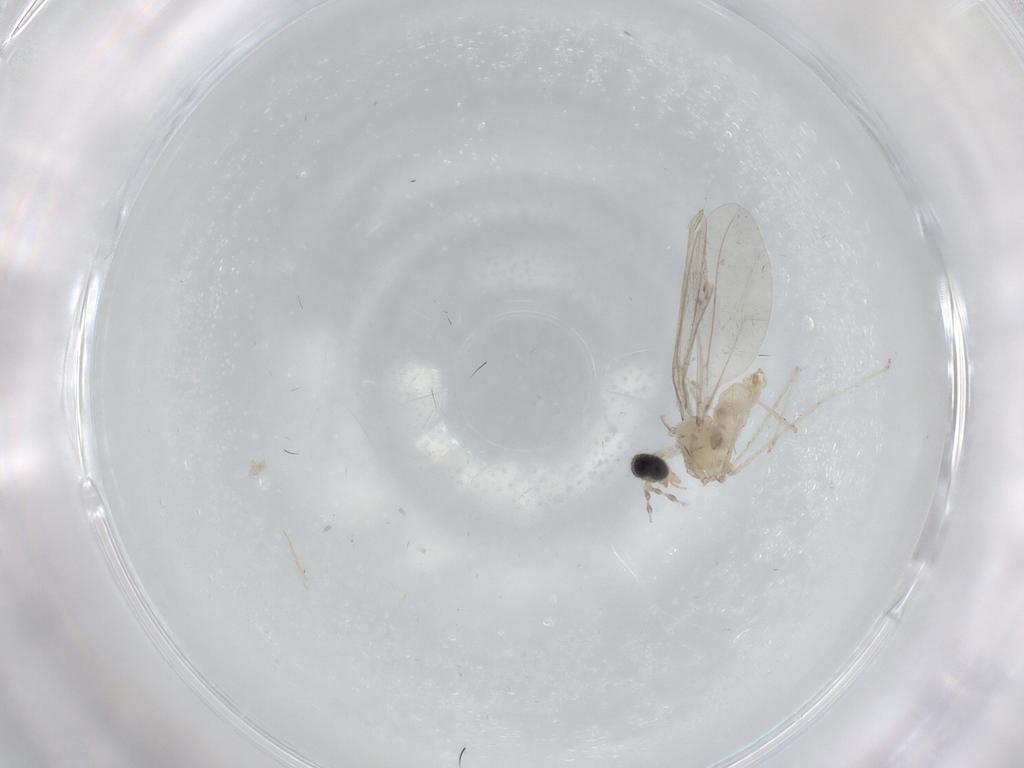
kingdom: Animalia
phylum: Arthropoda
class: Insecta
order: Diptera
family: Cecidomyiidae
